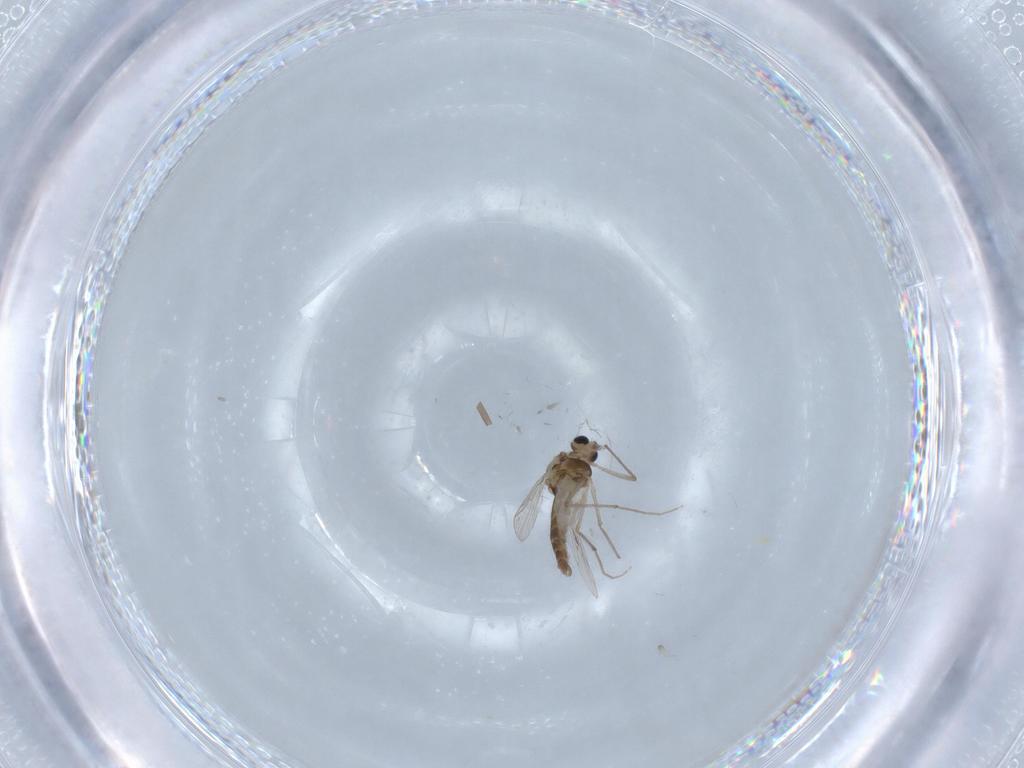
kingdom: Animalia
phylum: Arthropoda
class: Insecta
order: Diptera
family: Chironomidae
